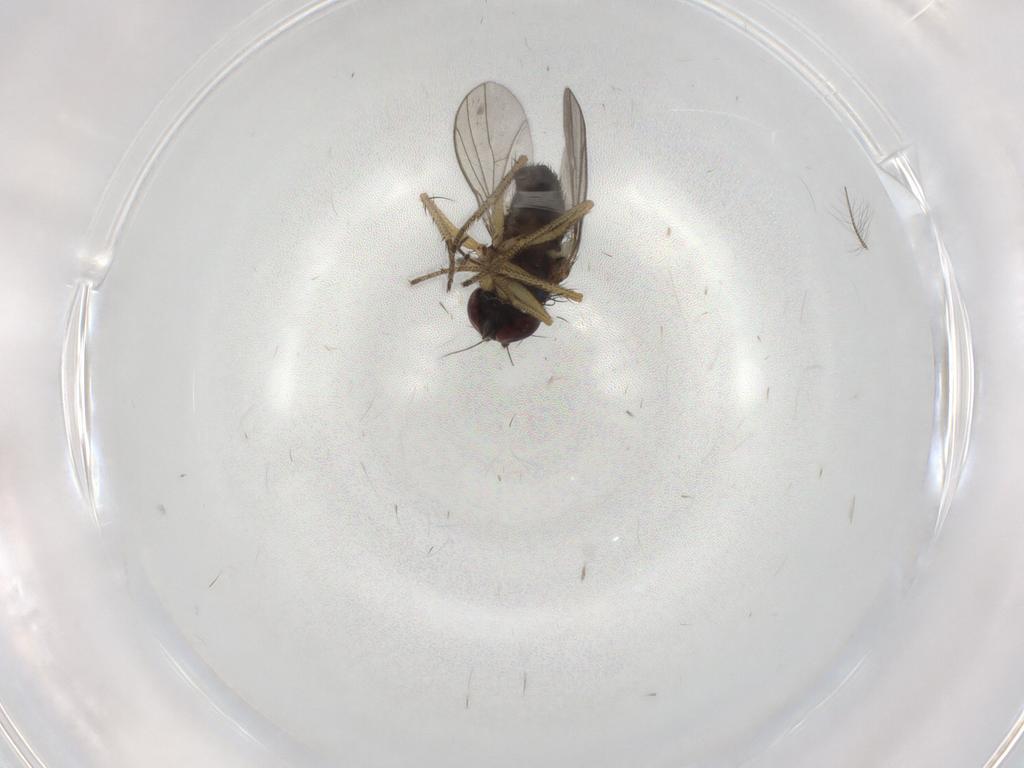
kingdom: Animalia
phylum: Arthropoda
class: Insecta
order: Diptera
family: Chironomidae
